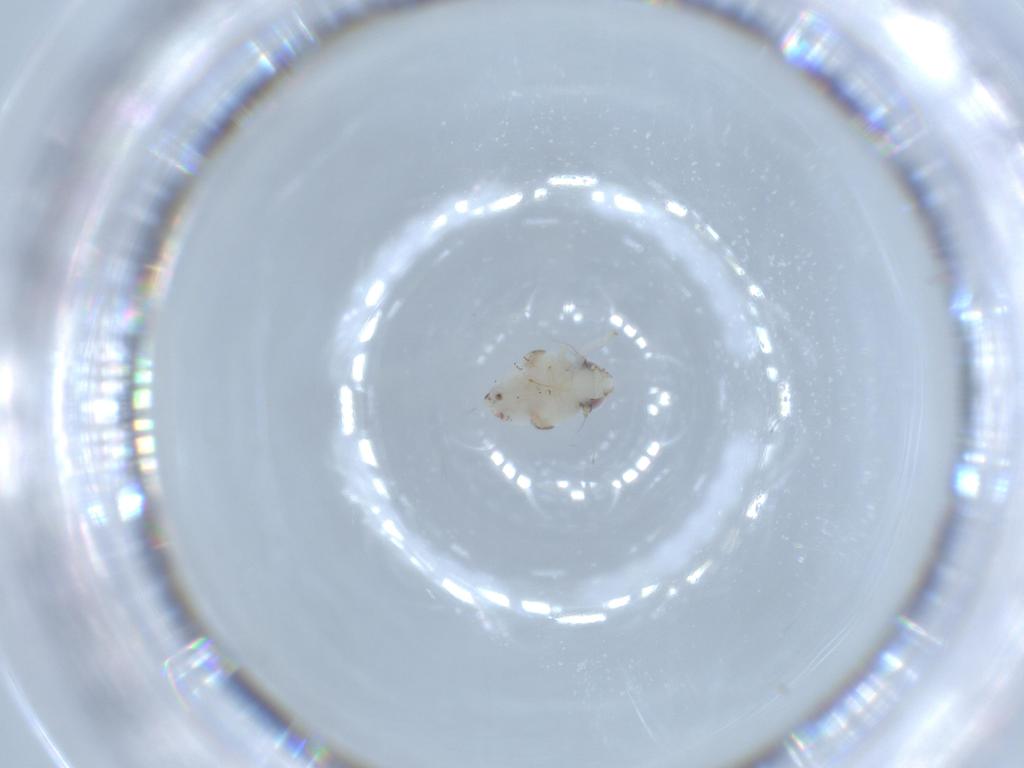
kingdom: Animalia
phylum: Arthropoda
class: Insecta
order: Hemiptera
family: Nogodinidae
